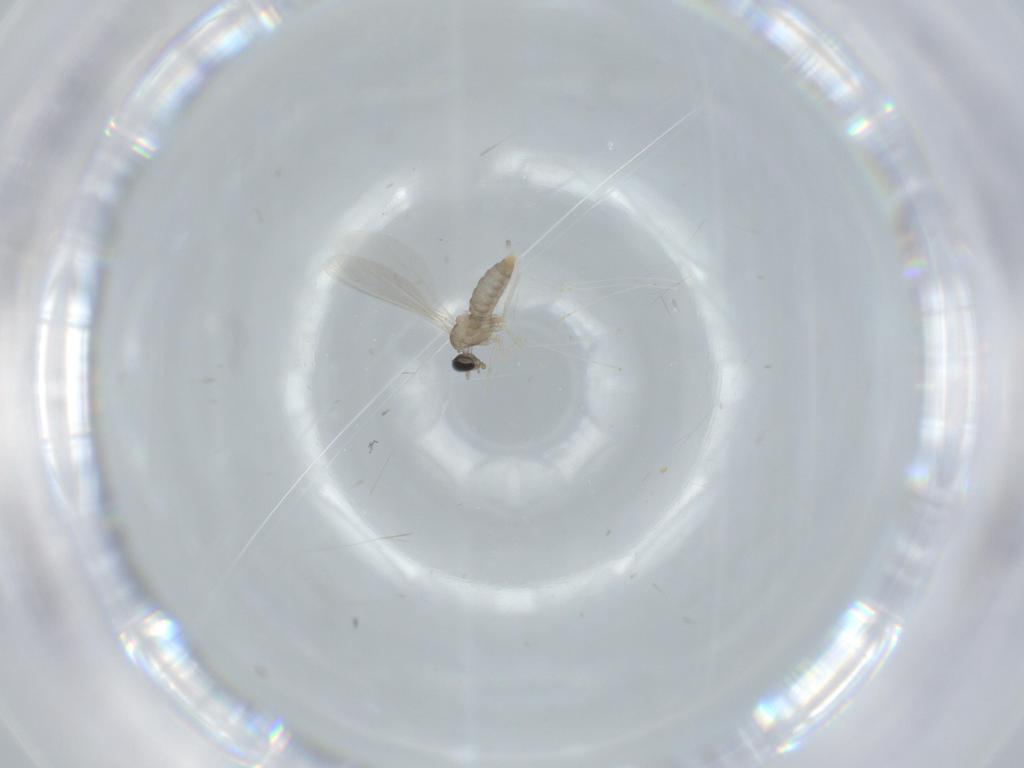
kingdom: Animalia
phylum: Arthropoda
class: Insecta
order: Diptera
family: Cecidomyiidae
